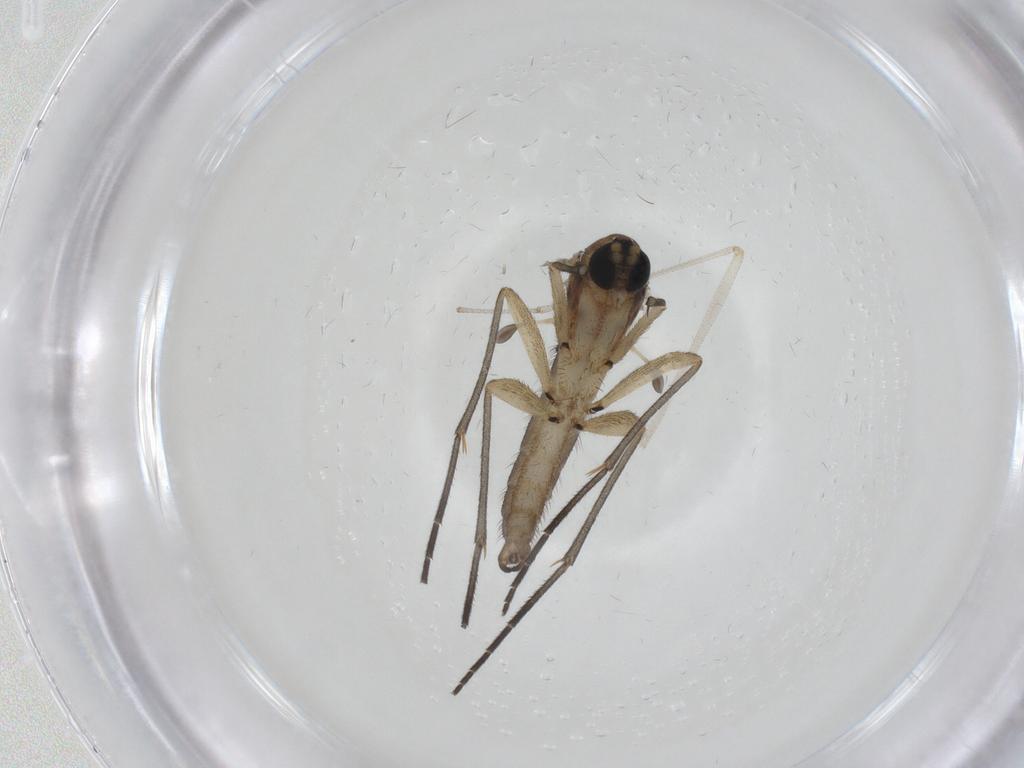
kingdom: Animalia
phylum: Arthropoda
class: Insecta
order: Diptera
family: Sciaridae
